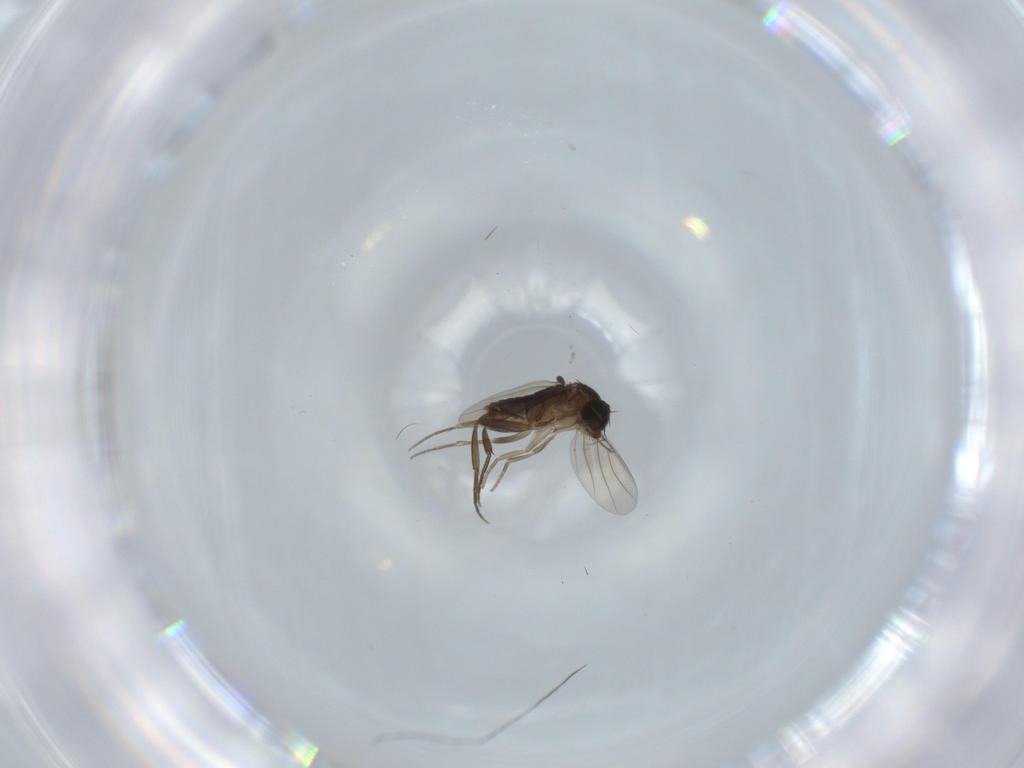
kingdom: Animalia
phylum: Arthropoda
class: Insecta
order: Diptera
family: Phoridae
